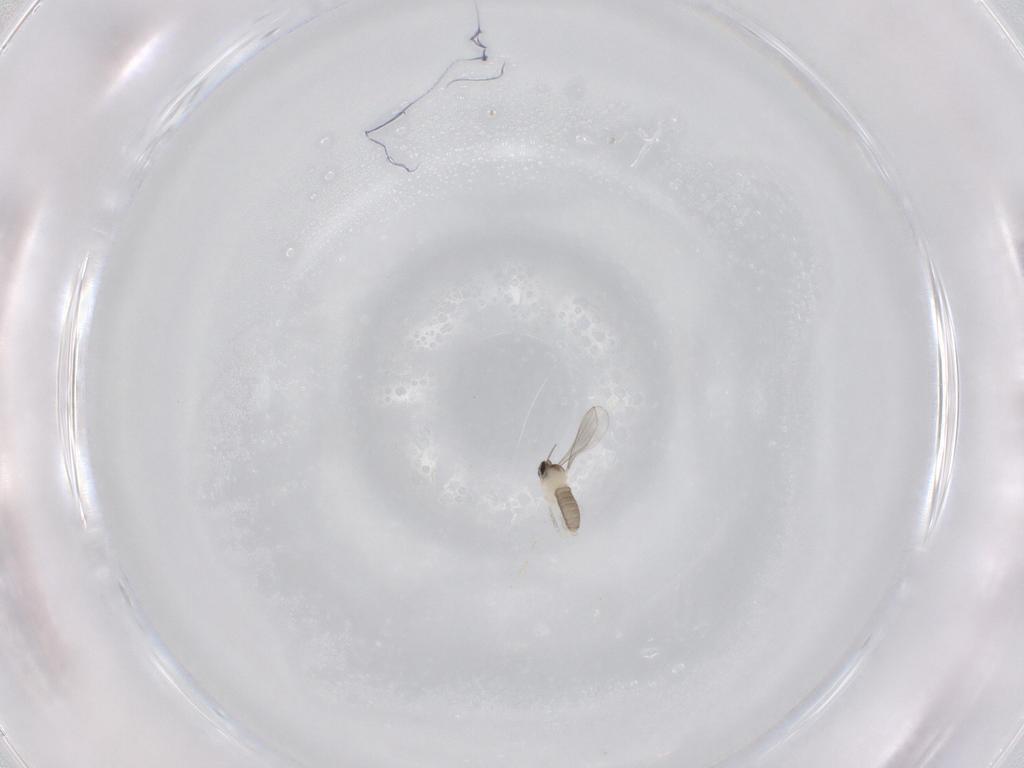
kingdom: Animalia
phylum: Arthropoda
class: Insecta
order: Diptera
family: Cecidomyiidae
